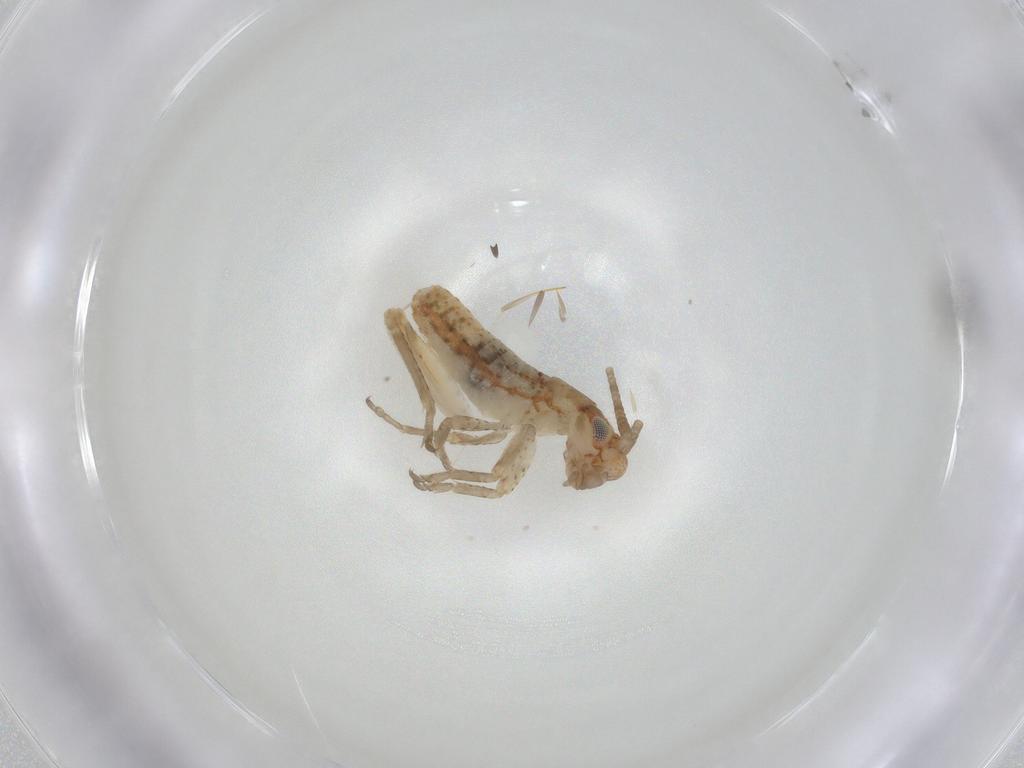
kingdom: Animalia
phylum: Arthropoda
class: Insecta
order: Orthoptera
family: Mogoplistidae
